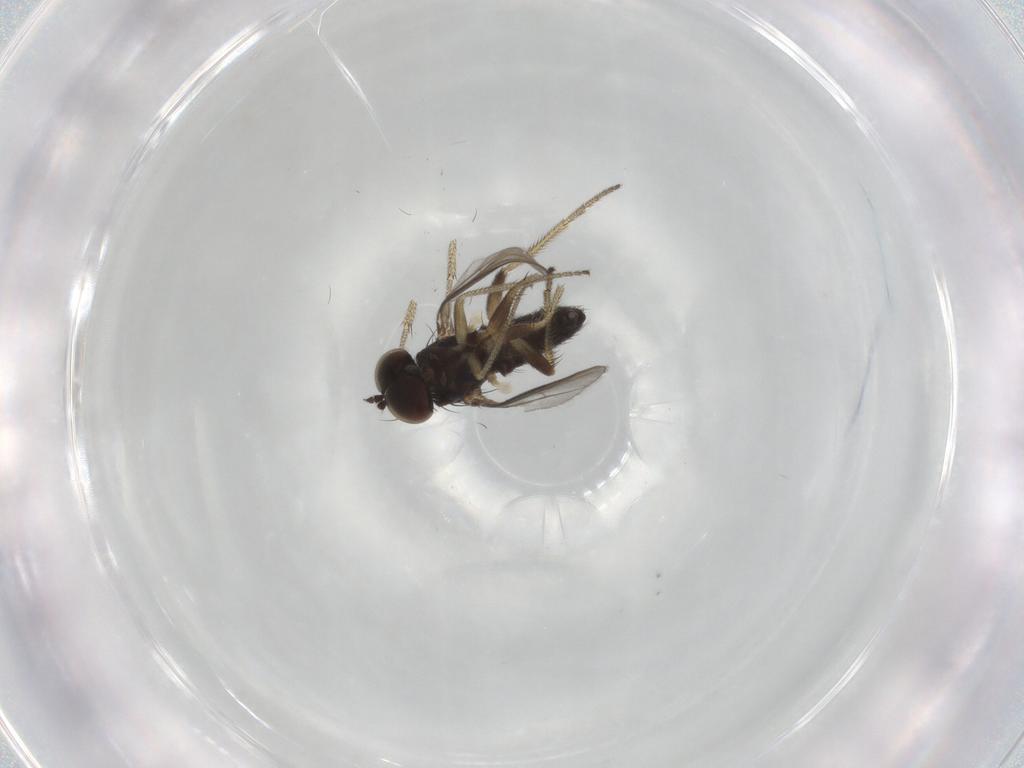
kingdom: Animalia
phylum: Arthropoda
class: Insecta
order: Diptera
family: Dolichopodidae
